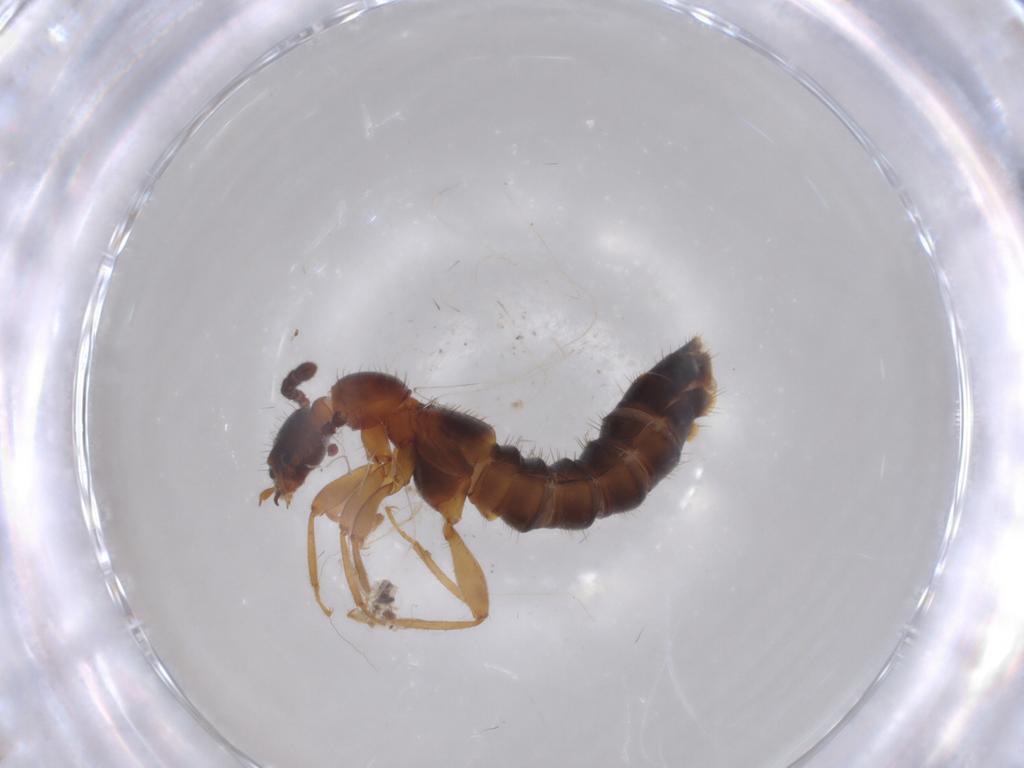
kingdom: Animalia
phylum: Arthropoda
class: Insecta
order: Coleoptera
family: Staphylinidae
